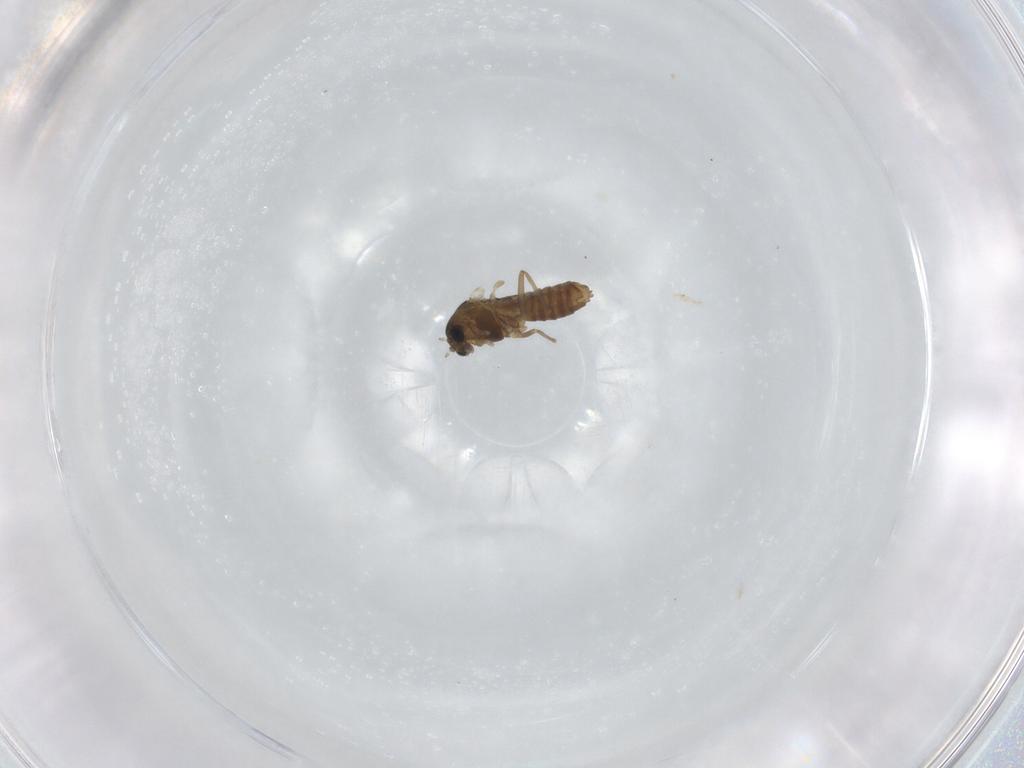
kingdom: Animalia
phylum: Arthropoda
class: Insecta
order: Diptera
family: Chironomidae
